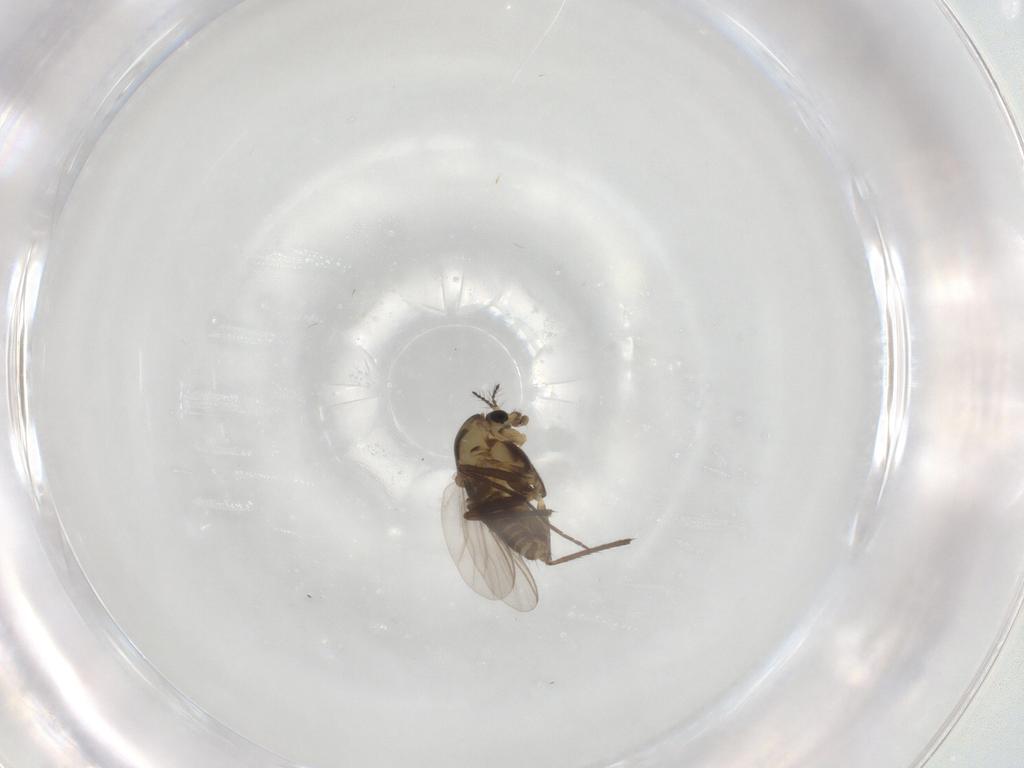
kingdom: Animalia
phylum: Arthropoda
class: Insecta
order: Diptera
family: Chironomidae
